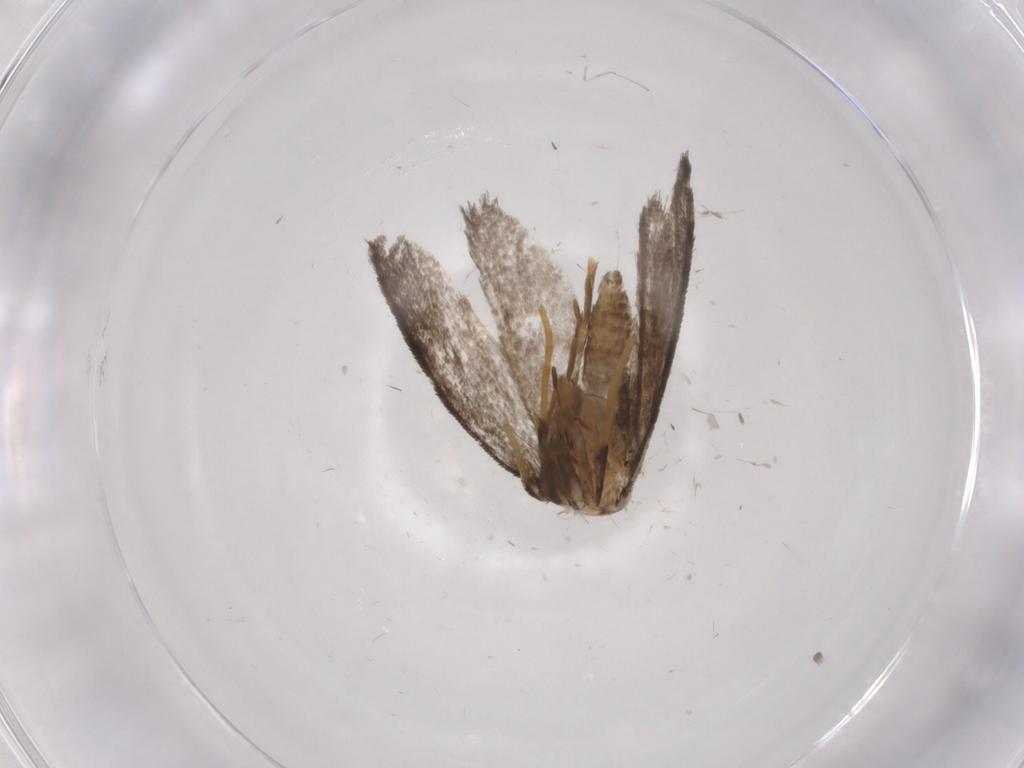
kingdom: Animalia
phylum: Arthropoda
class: Insecta
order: Lepidoptera
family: Psychidae
